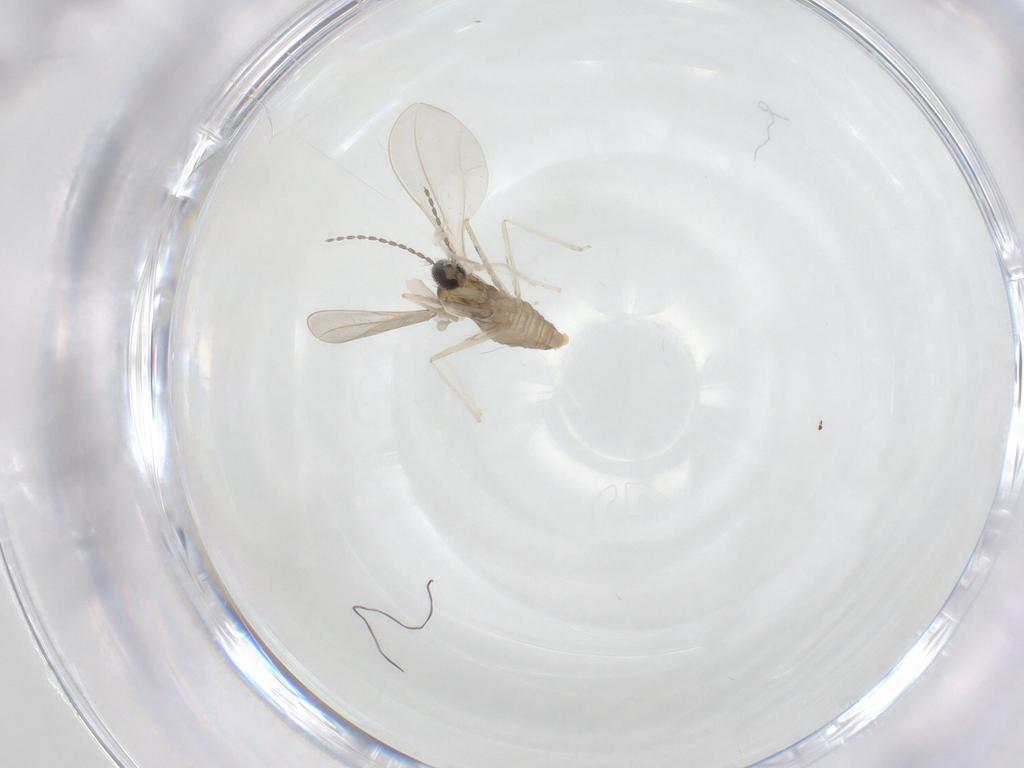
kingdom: Animalia
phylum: Arthropoda
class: Insecta
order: Diptera
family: Cecidomyiidae
